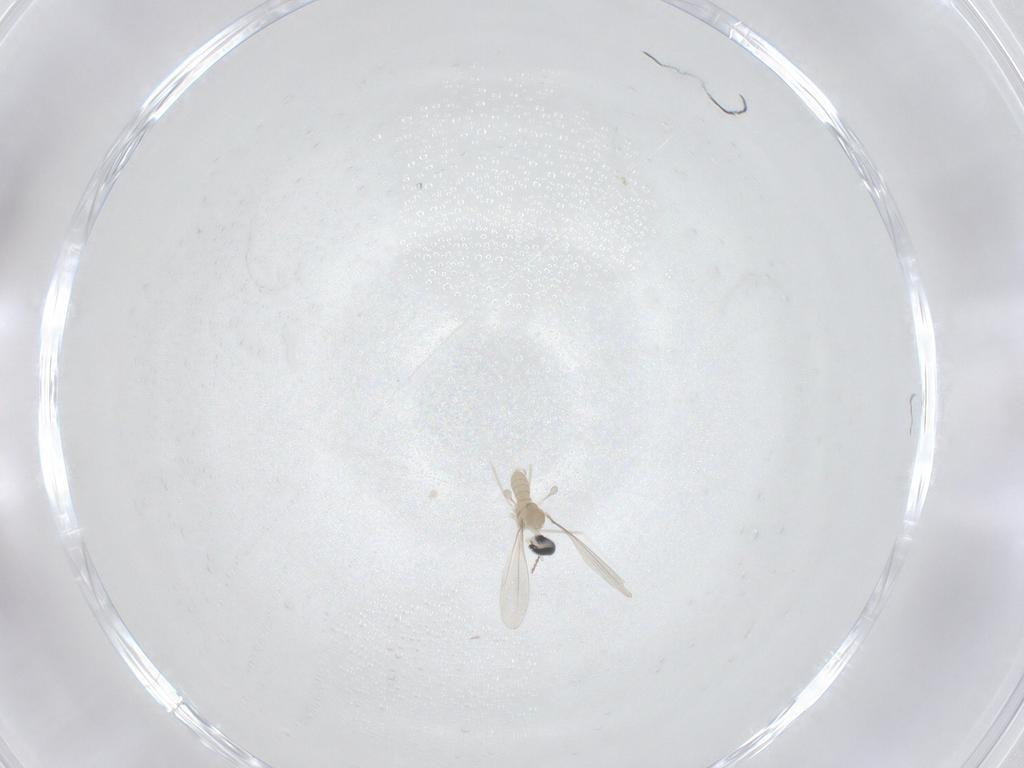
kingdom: Animalia
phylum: Arthropoda
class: Insecta
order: Diptera
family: Cecidomyiidae
